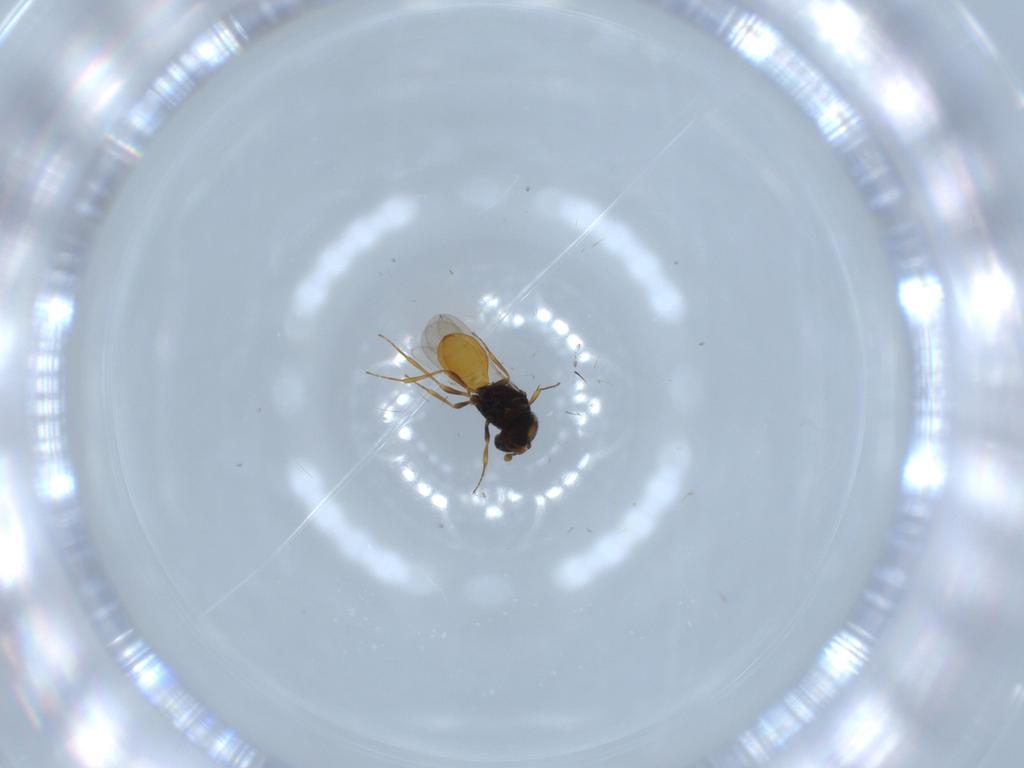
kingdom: Animalia
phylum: Arthropoda
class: Insecta
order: Hymenoptera
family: Scelionidae
